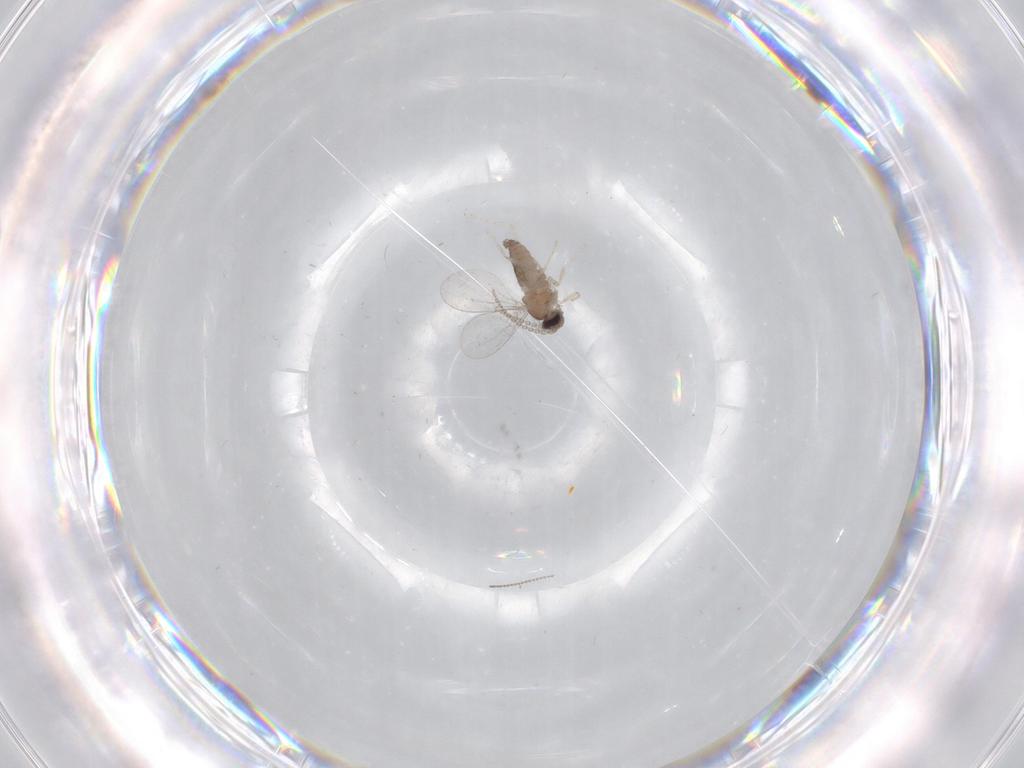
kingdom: Animalia
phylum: Arthropoda
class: Insecta
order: Diptera
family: Cecidomyiidae
